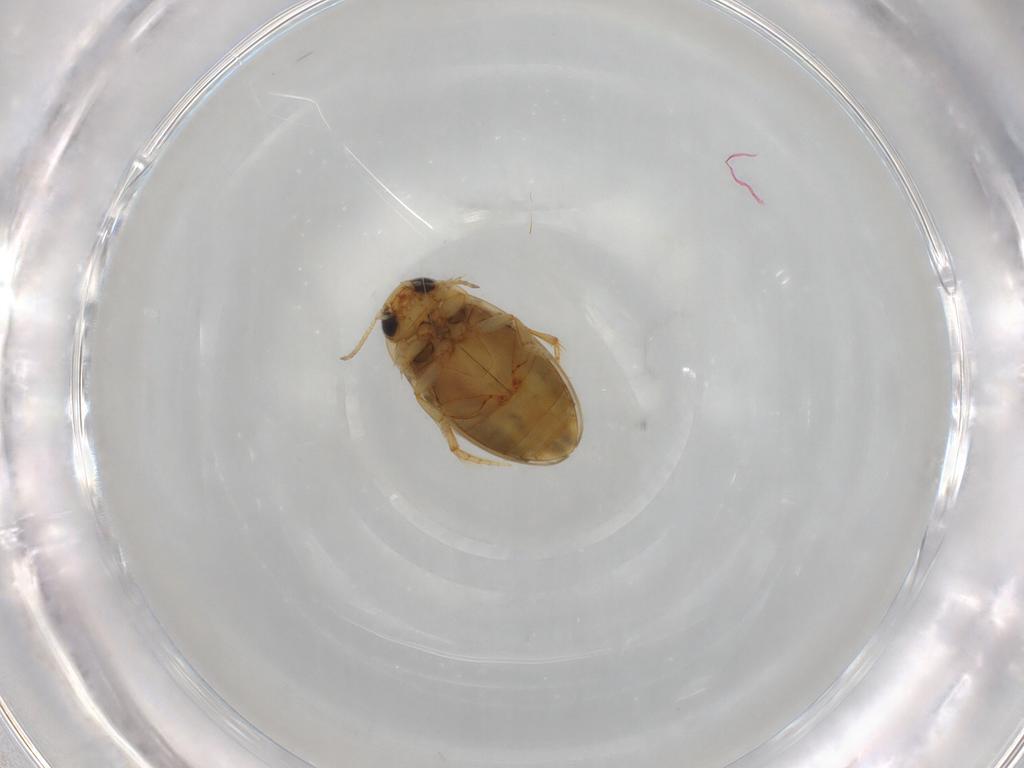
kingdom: Animalia
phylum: Arthropoda
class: Insecta
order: Coleoptera
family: Dytiscidae
